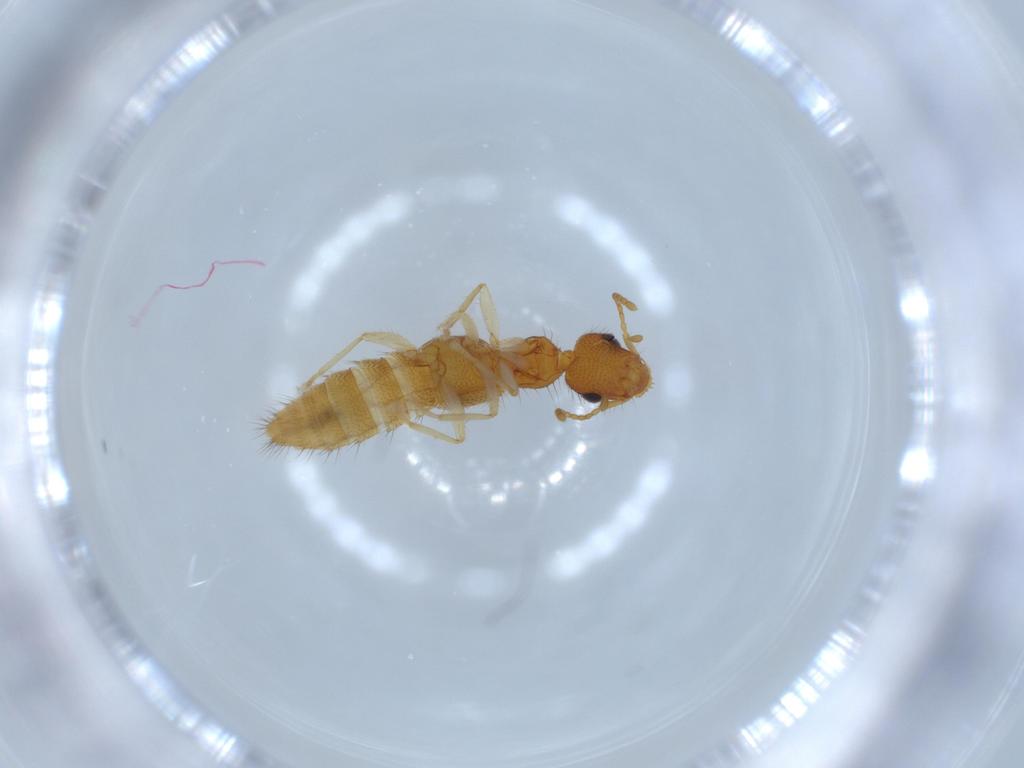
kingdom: Animalia
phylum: Arthropoda
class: Insecta
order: Coleoptera
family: Staphylinidae
